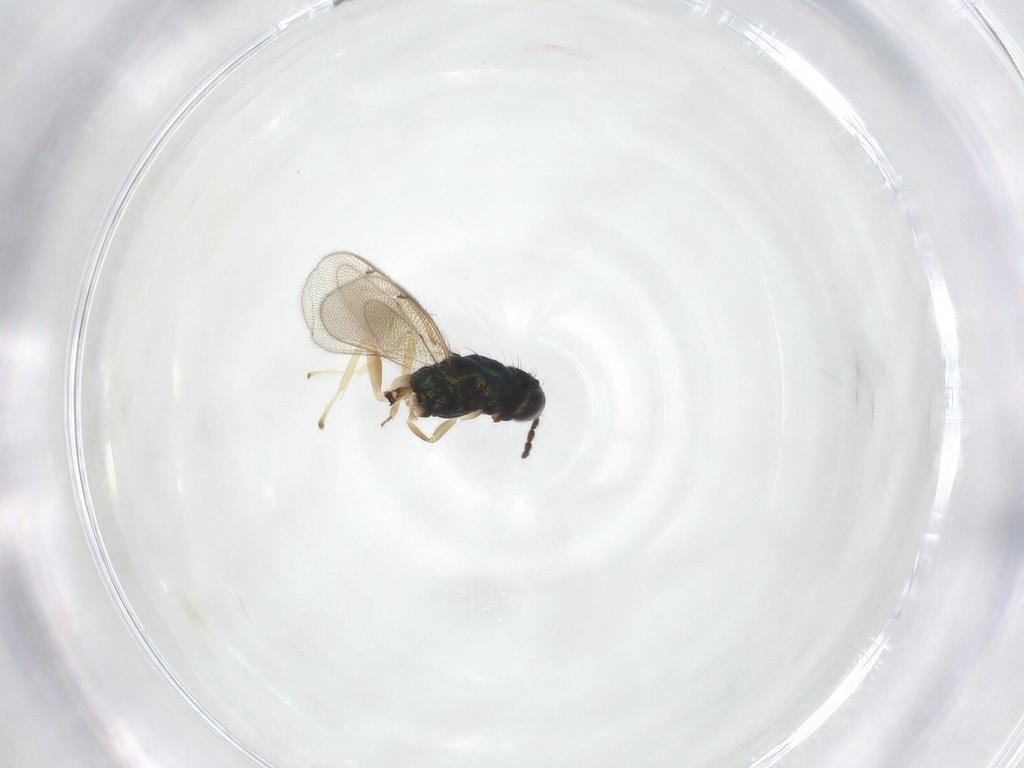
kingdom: Animalia
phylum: Arthropoda
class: Insecta
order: Hymenoptera
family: Eulophidae
